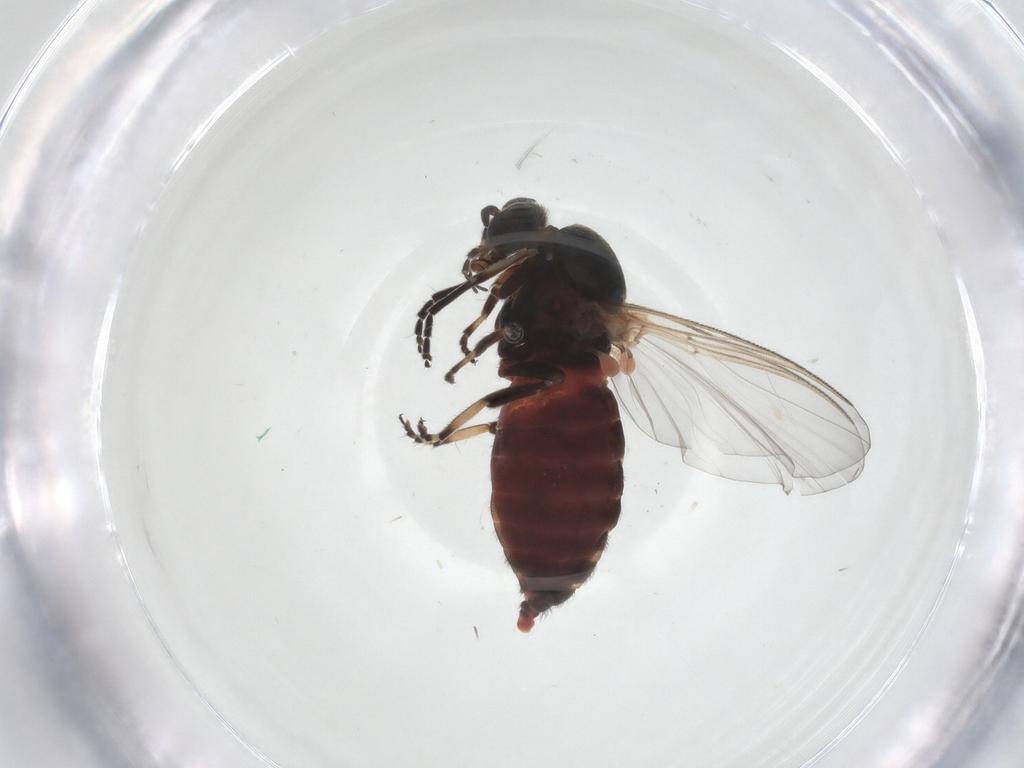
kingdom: Animalia
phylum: Arthropoda
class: Insecta
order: Diptera
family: Simuliidae
